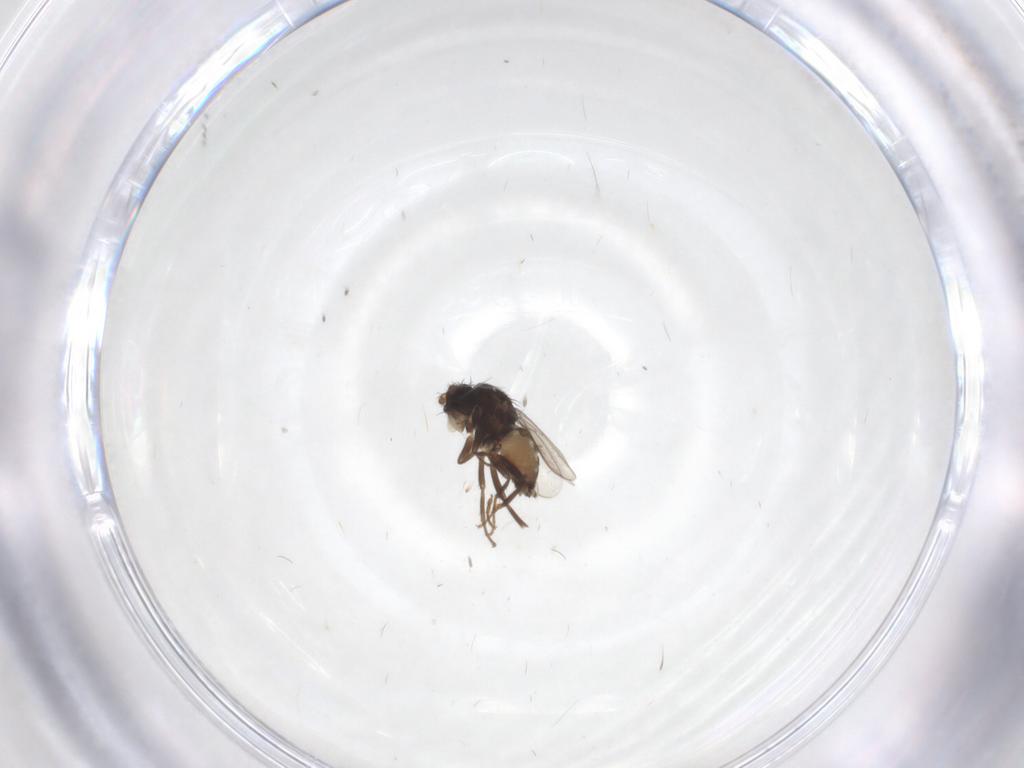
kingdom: Animalia
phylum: Arthropoda
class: Insecta
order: Diptera
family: Sphaeroceridae
